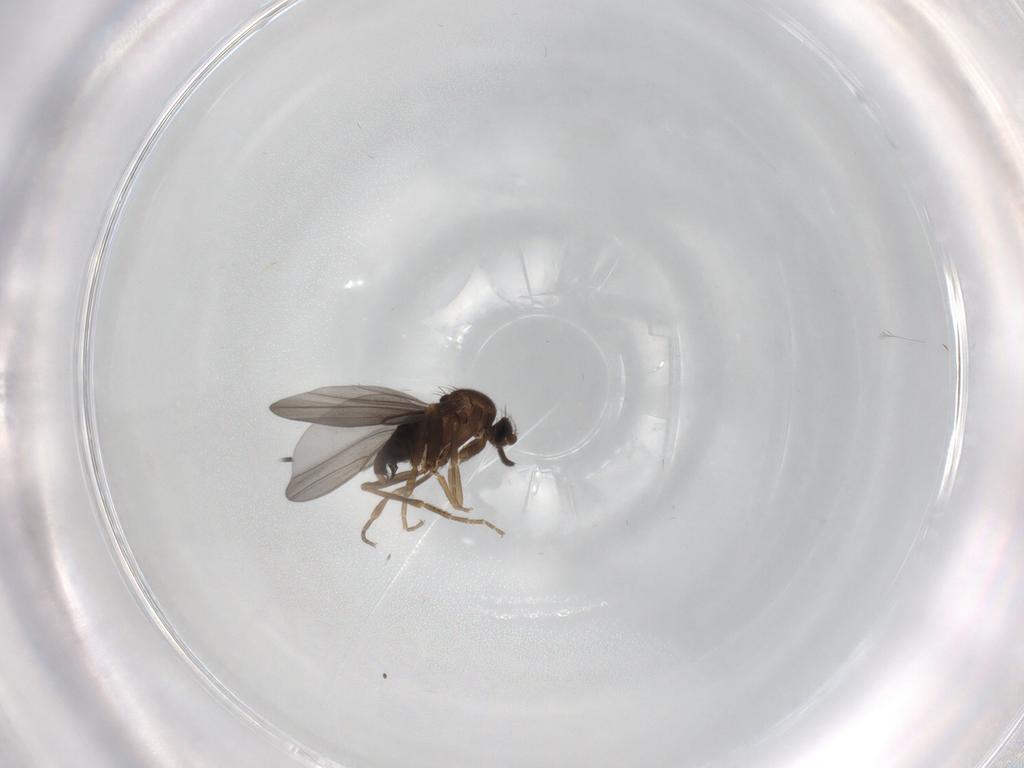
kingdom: Animalia
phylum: Arthropoda
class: Insecta
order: Diptera
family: Phoridae
